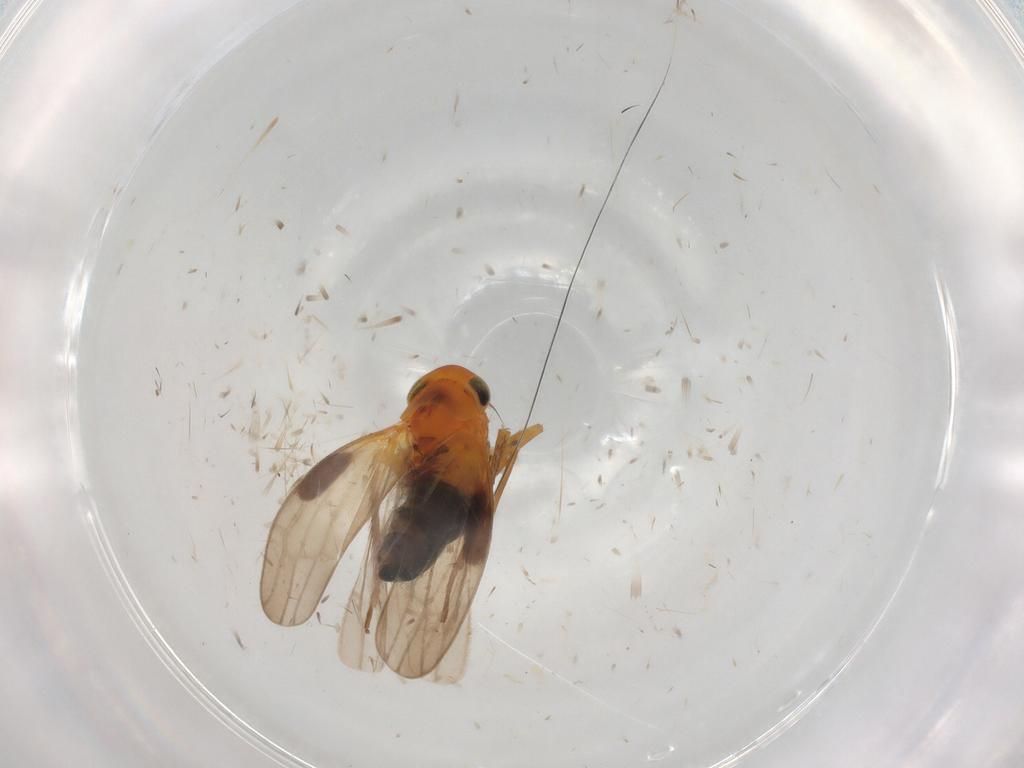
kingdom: Animalia
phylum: Arthropoda
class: Insecta
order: Hemiptera
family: Cicadellidae
